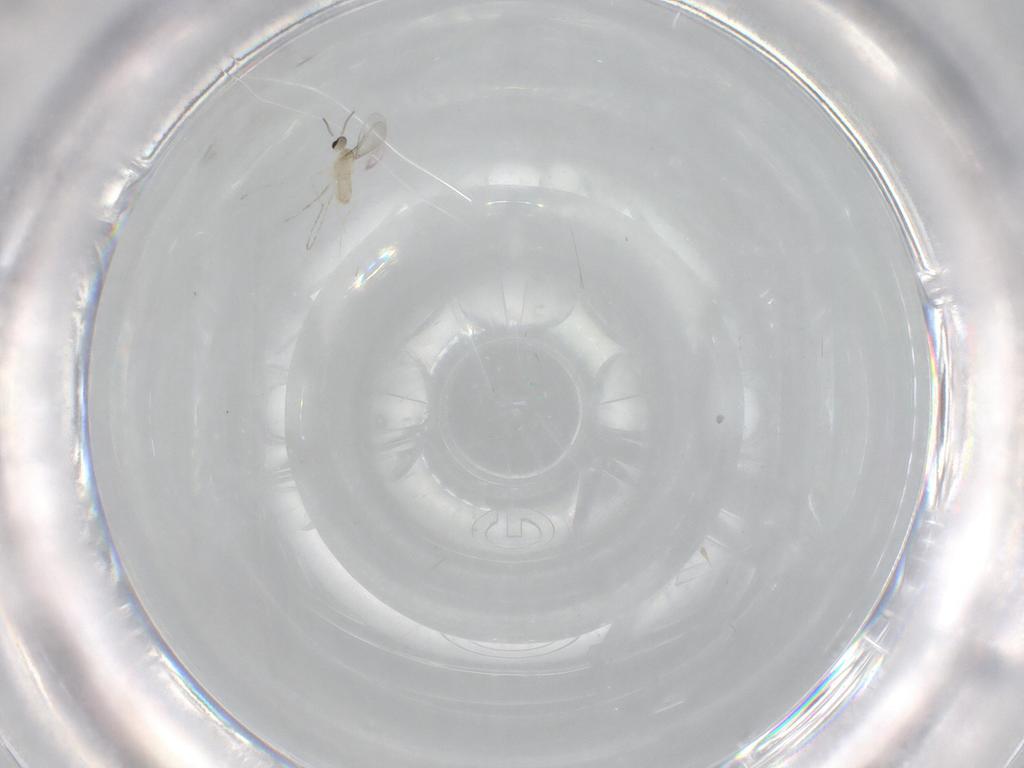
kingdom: Animalia
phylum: Arthropoda
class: Insecta
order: Diptera
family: Cecidomyiidae
